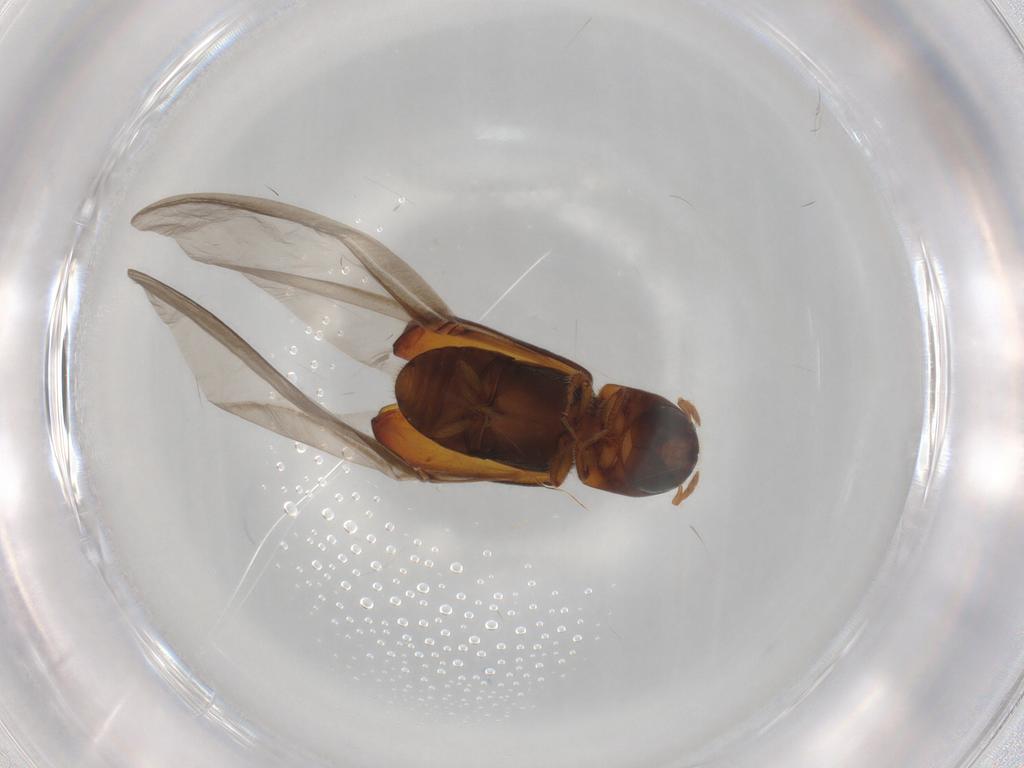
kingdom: Animalia
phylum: Arthropoda
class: Insecta
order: Coleoptera
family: Curculionidae
